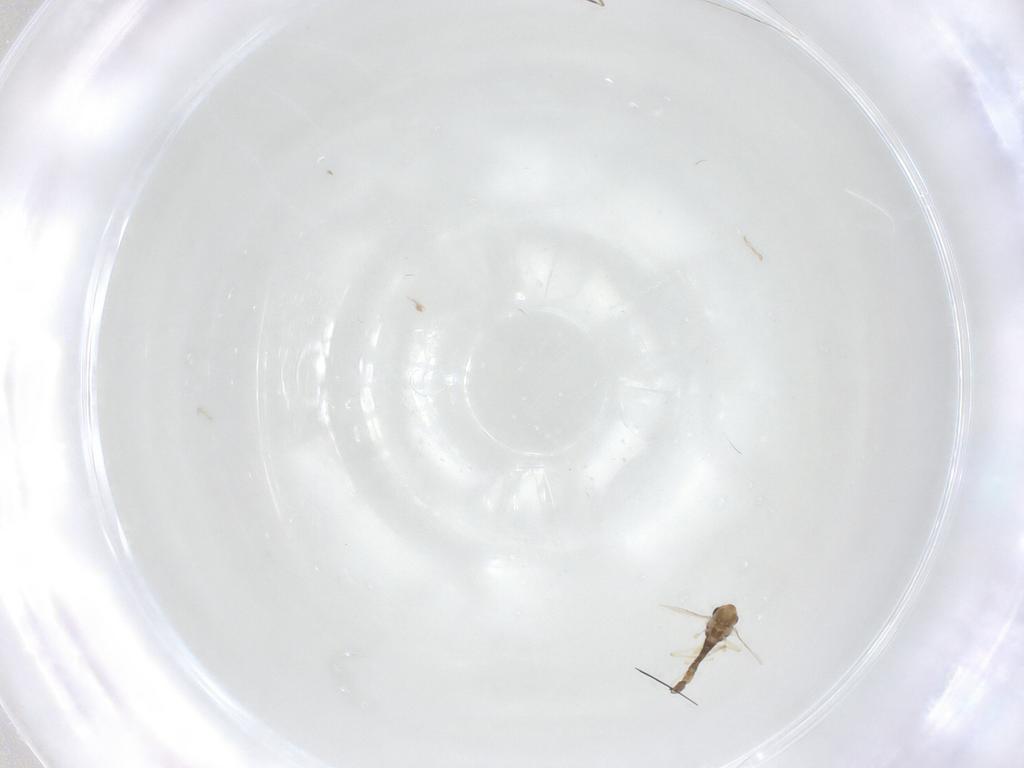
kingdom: Animalia
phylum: Arthropoda
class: Insecta
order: Diptera
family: Chironomidae
